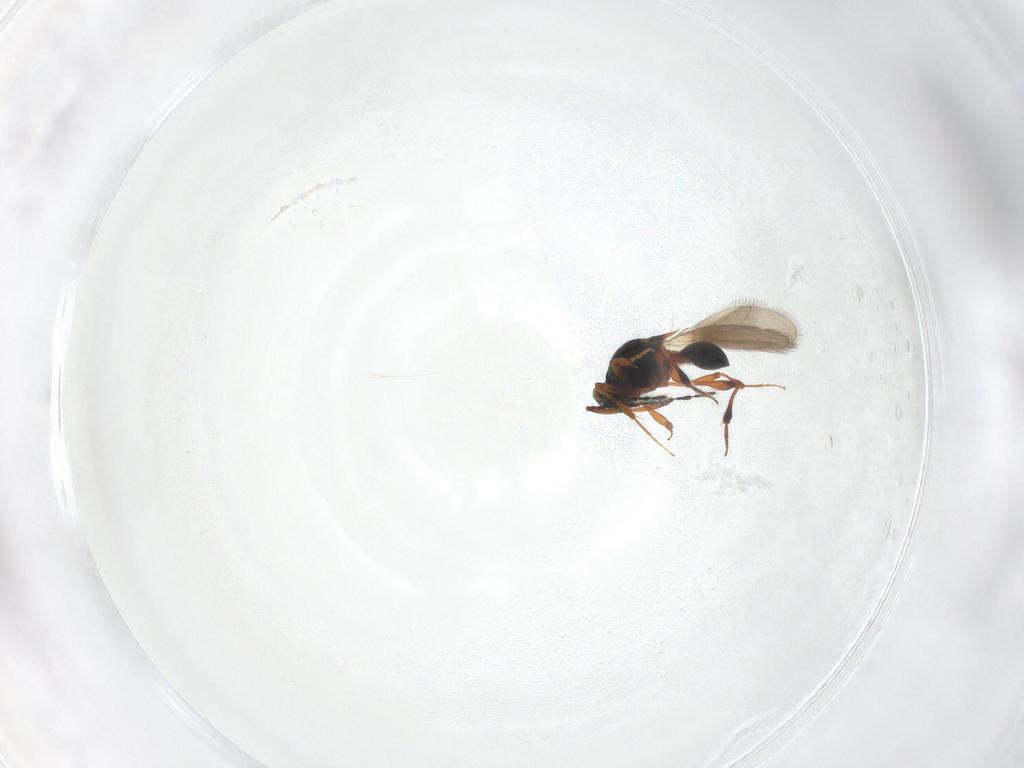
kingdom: Animalia
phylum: Arthropoda
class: Insecta
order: Hymenoptera
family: Platygastridae
